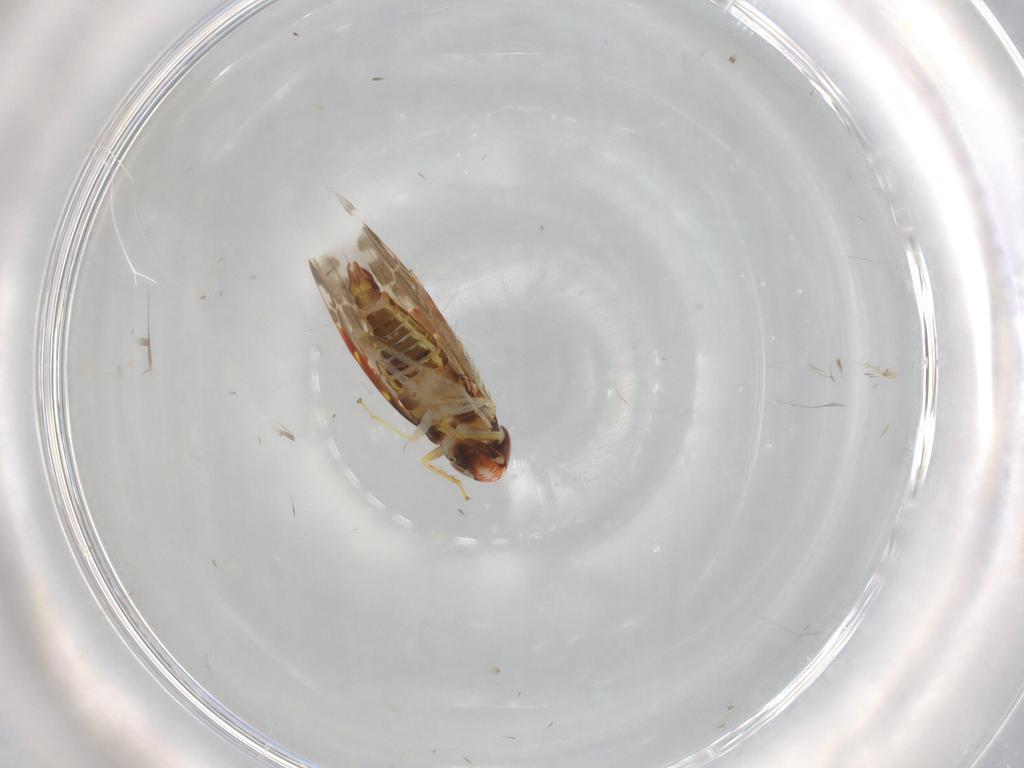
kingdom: Animalia
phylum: Arthropoda
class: Insecta
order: Hemiptera
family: Cicadellidae
